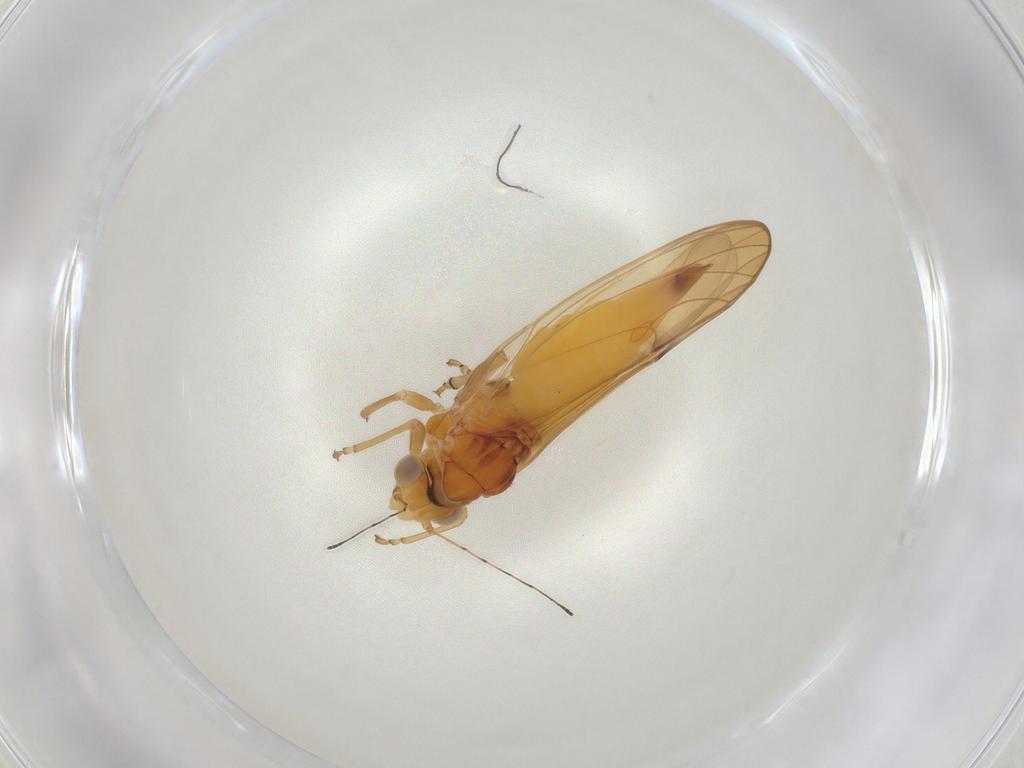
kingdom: Animalia
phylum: Arthropoda
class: Insecta
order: Hemiptera
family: Psylloidea_incertae_sedis
